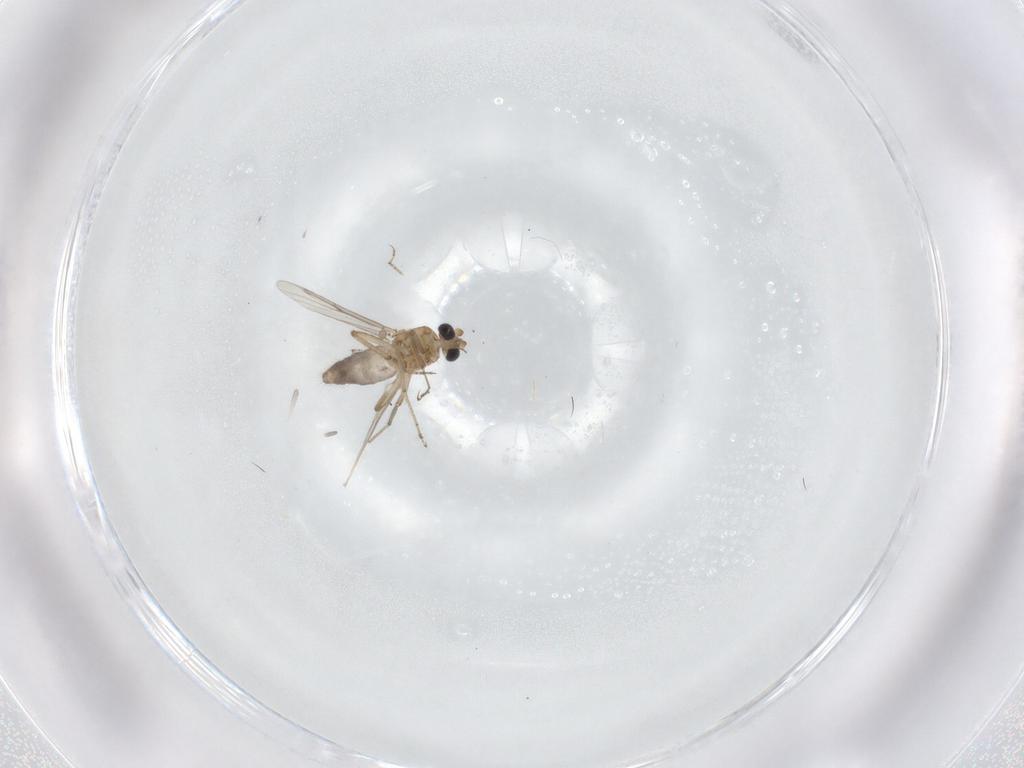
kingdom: Animalia
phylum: Arthropoda
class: Insecta
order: Diptera
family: Ceratopogonidae
